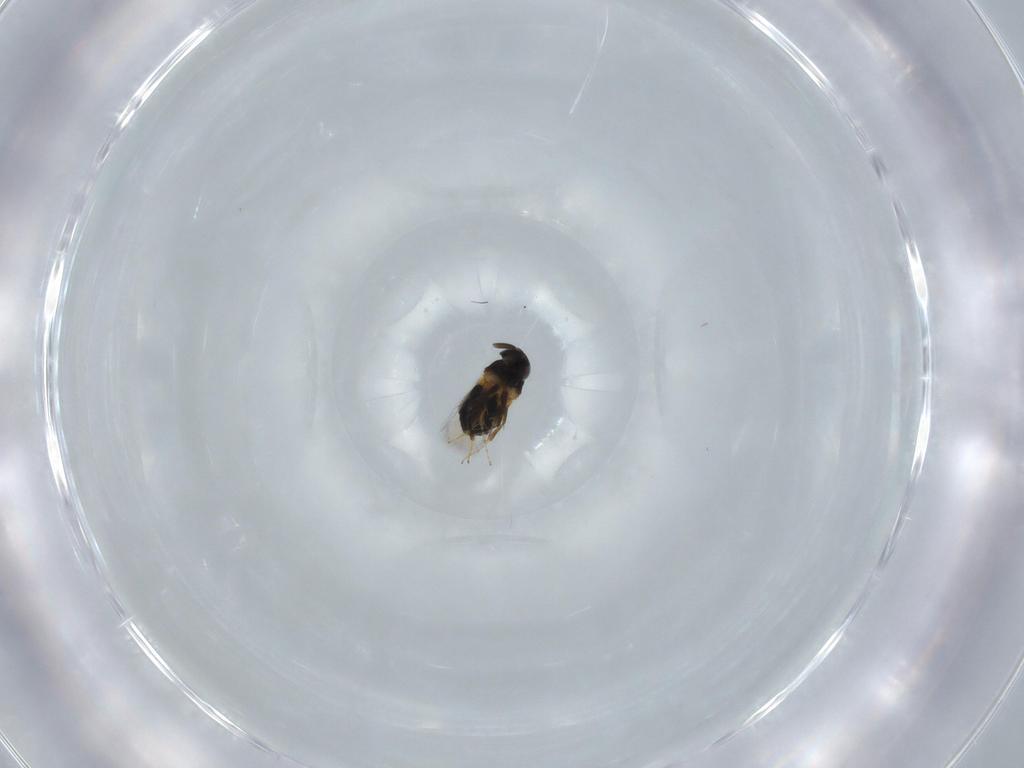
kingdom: Animalia
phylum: Arthropoda
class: Insecta
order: Hymenoptera
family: Signiphoridae
